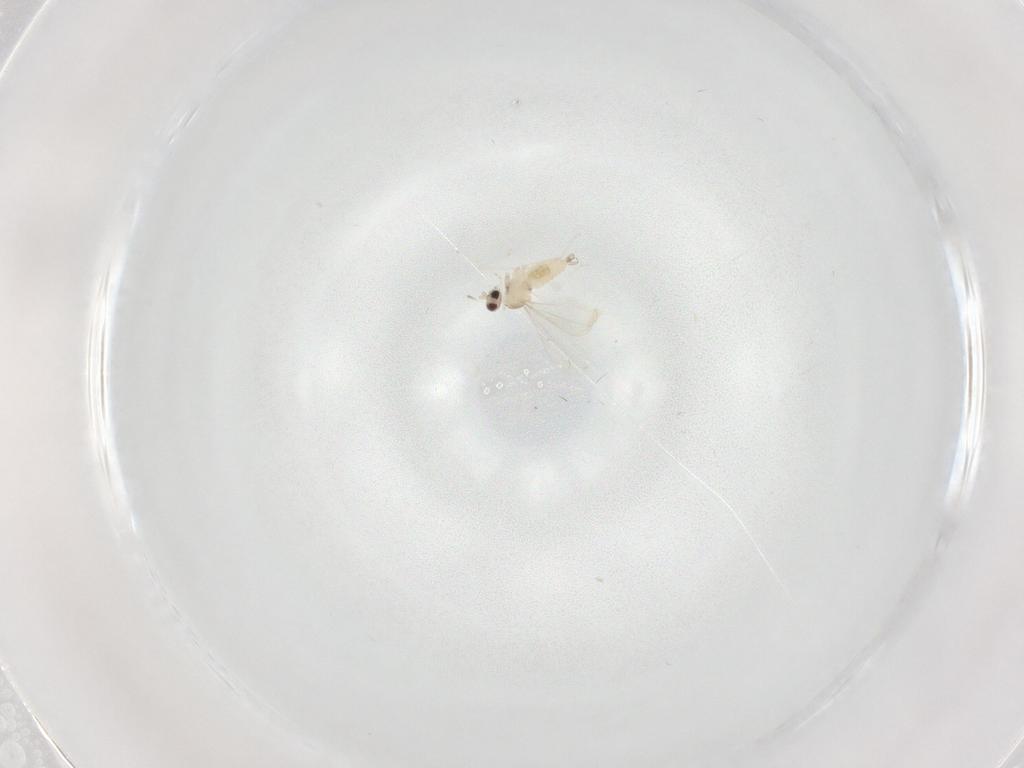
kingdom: Animalia
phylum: Arthropoda
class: Insecta
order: Diptera
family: Cecidomyiidae
